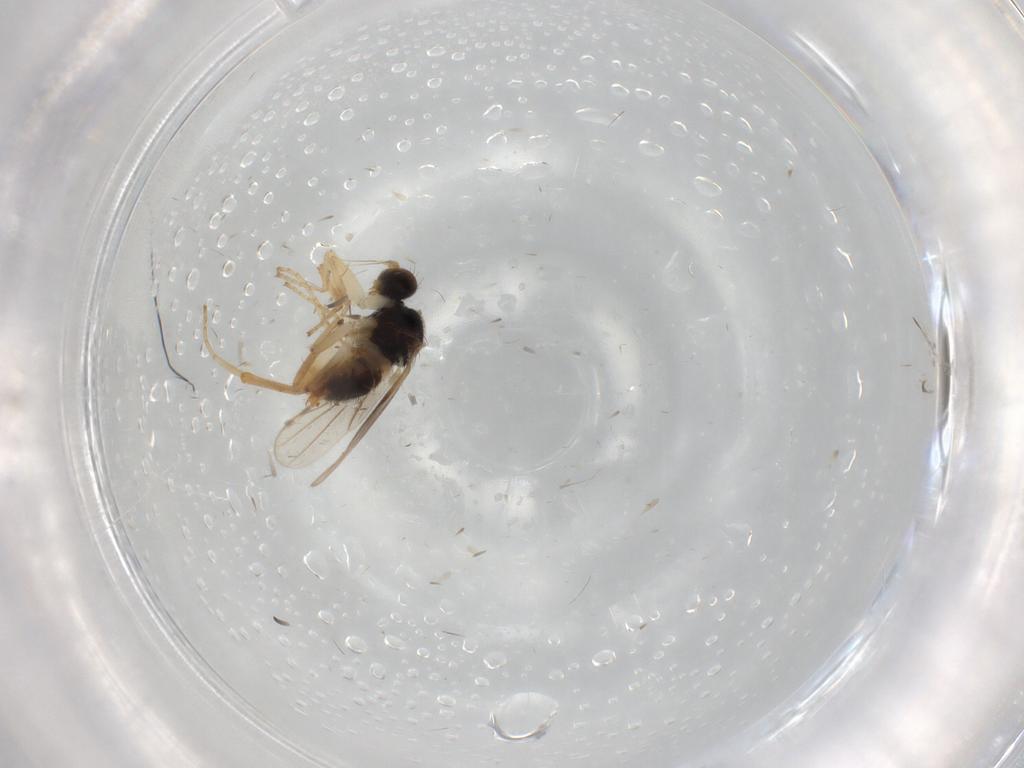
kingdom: Animalia
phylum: Arthropoda
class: Insecta
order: Diptera
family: Hybotidae
